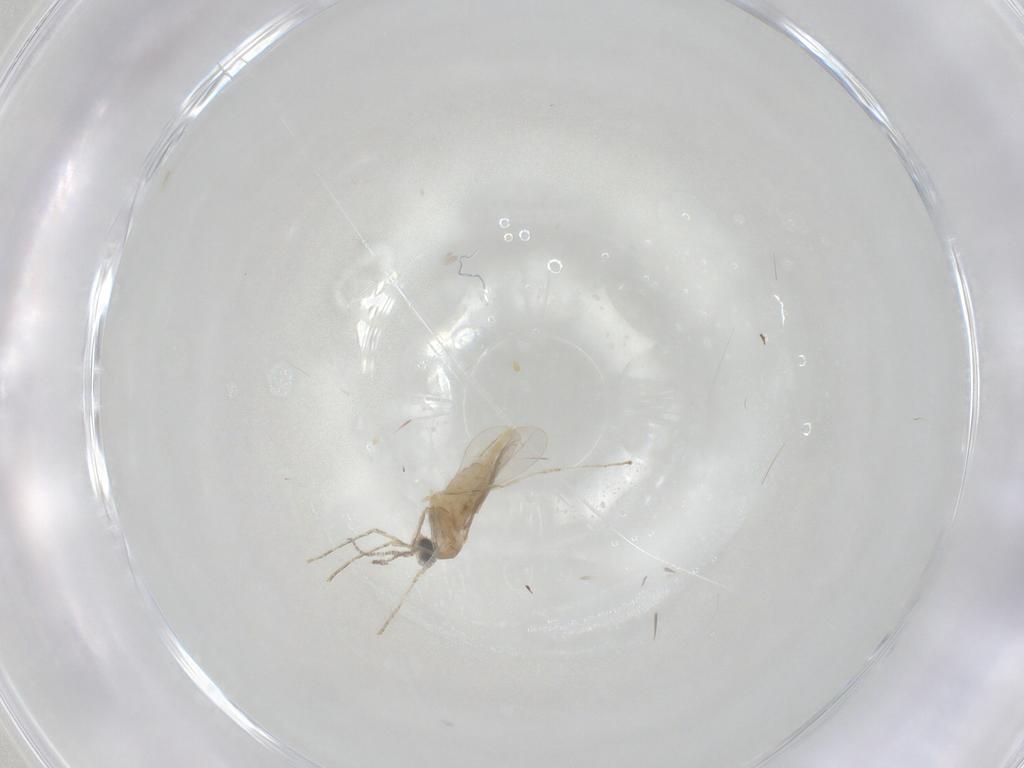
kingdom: Animalia
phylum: Arthropoda
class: Insecta
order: Diptera
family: Cecidomyiidae
